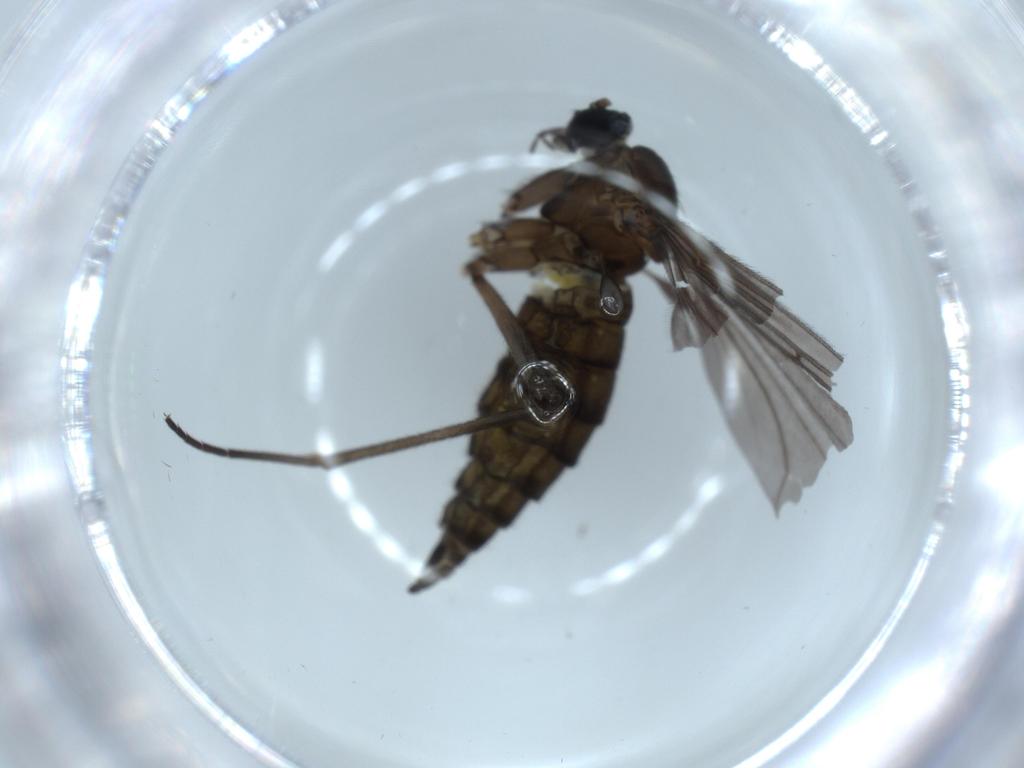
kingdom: Animalia
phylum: Arthropoda
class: Insecta
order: Diptera
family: Sciaridae
